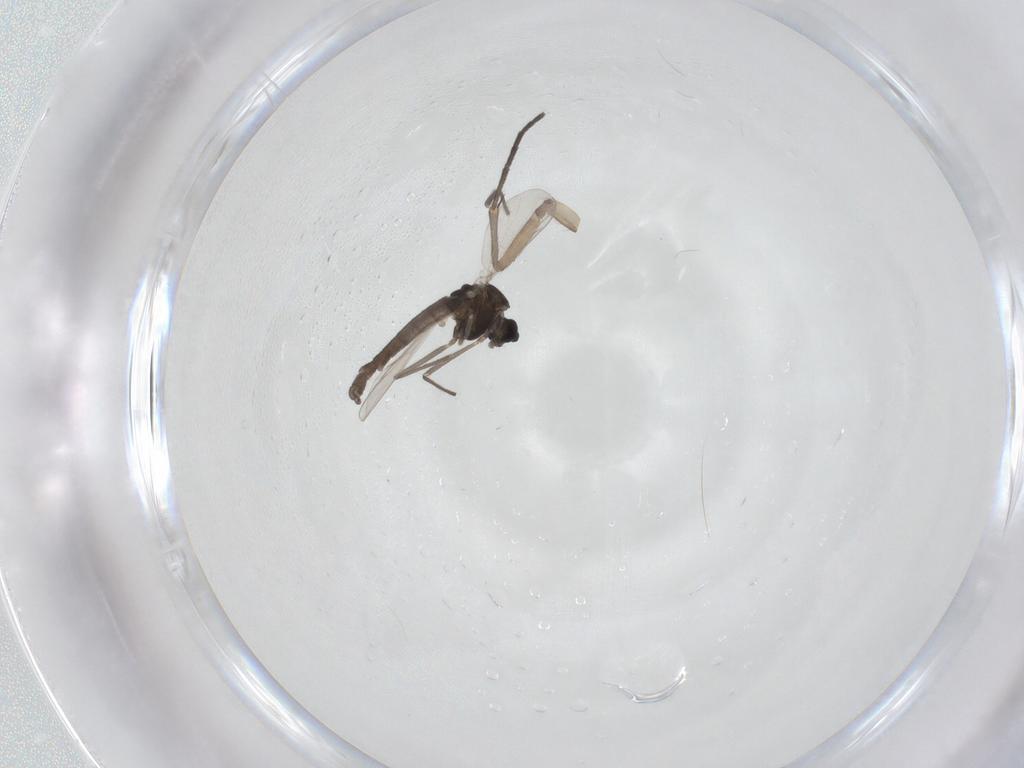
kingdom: Animalia
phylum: Arthropoda
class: Insecta
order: Diptera
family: Chironomidae
